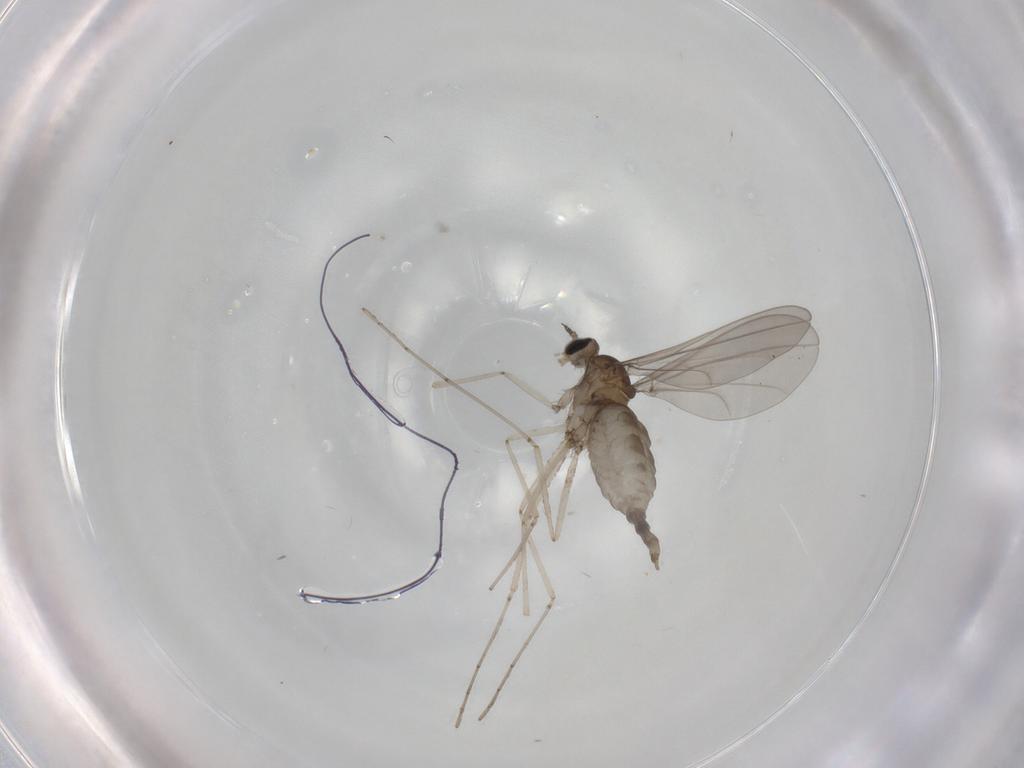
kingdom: Animalia
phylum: Arthropoda
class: Insecta
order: Diptera
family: Cecidomyiidae
